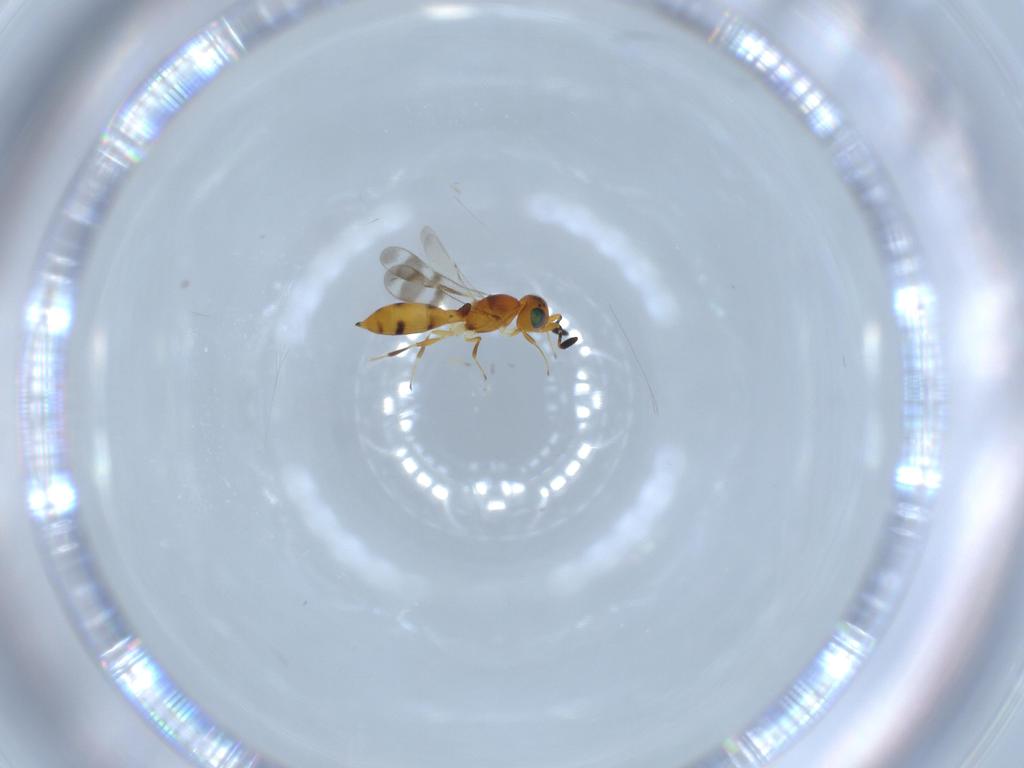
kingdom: Animalia
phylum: Arthropoda
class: Insecta
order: Hymenoptera
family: Scelionidae
